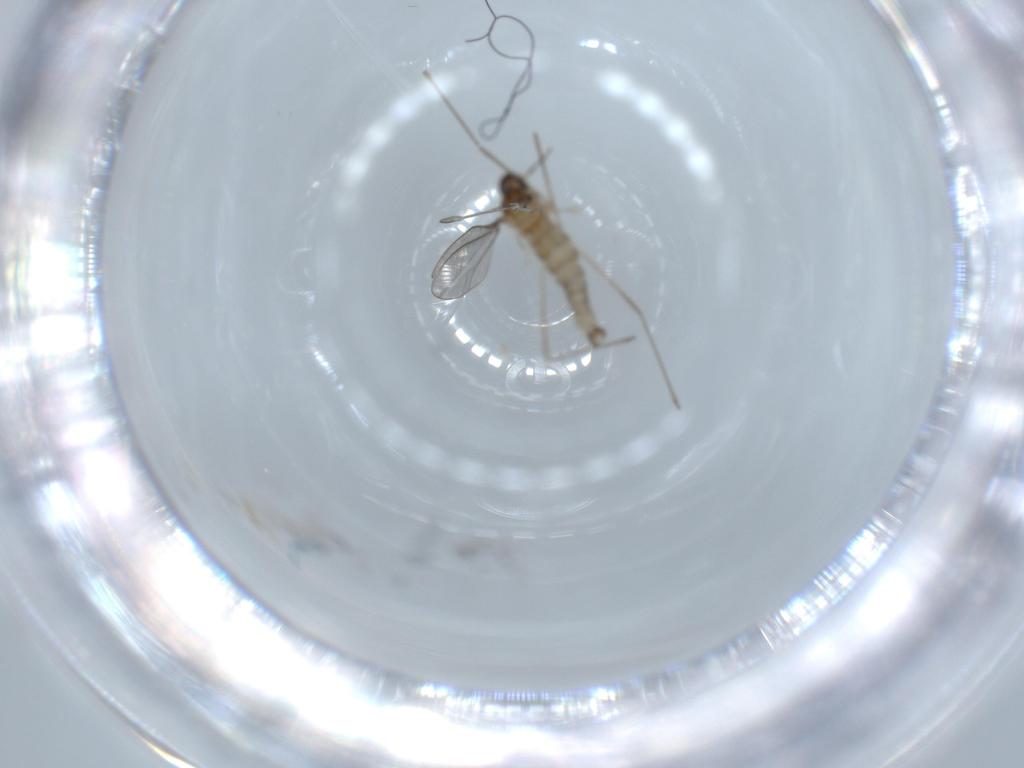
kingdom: Animalia
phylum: Arthropoda
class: Insecta
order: Diptera
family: Cecidomyiidae
